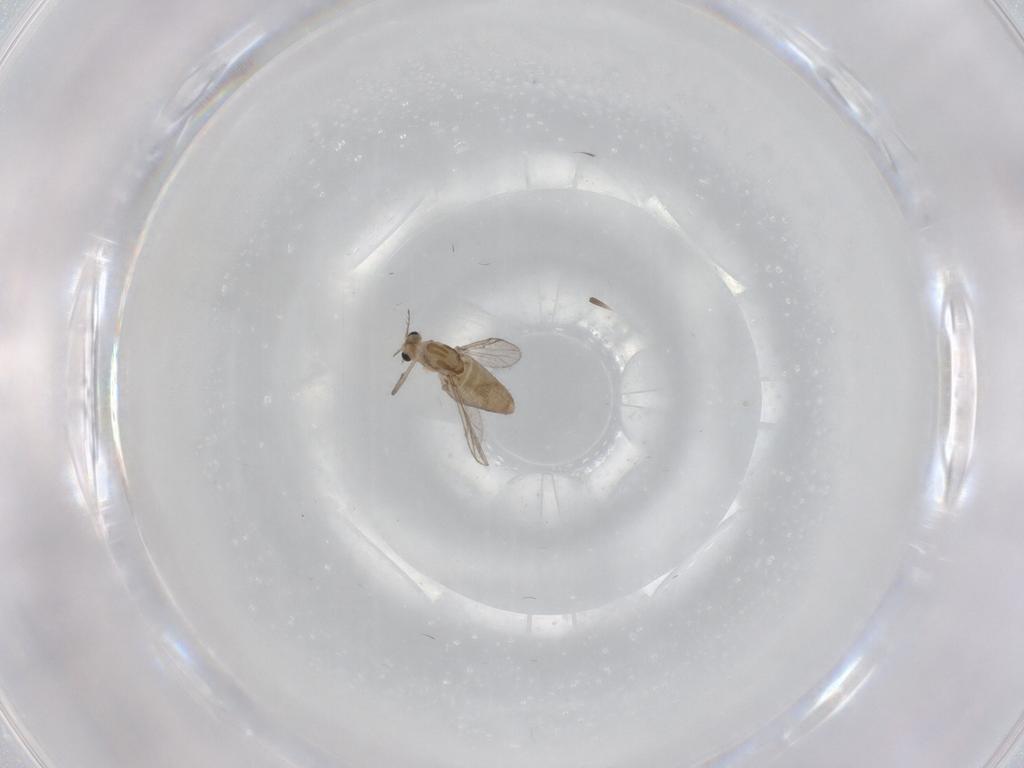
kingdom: Animalia
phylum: Arthropoda
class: Insecta
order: Diptera
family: Chironomidae
